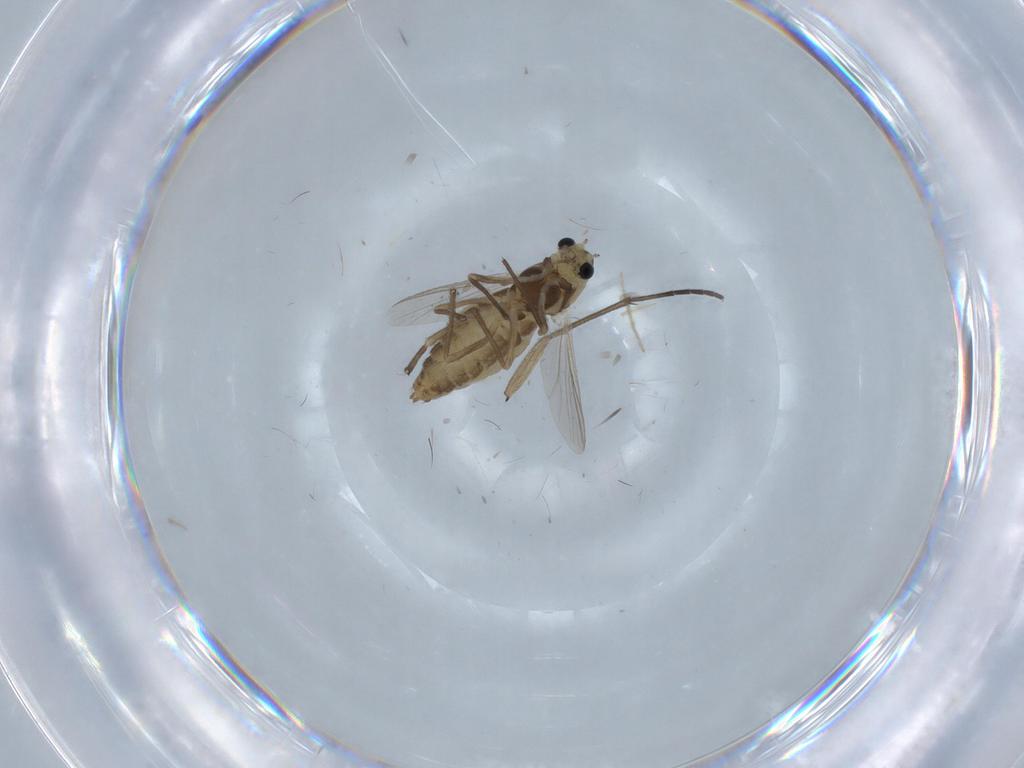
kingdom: Animalia
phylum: Arthropoda
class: Insecta
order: Diptera
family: Chironomidae
